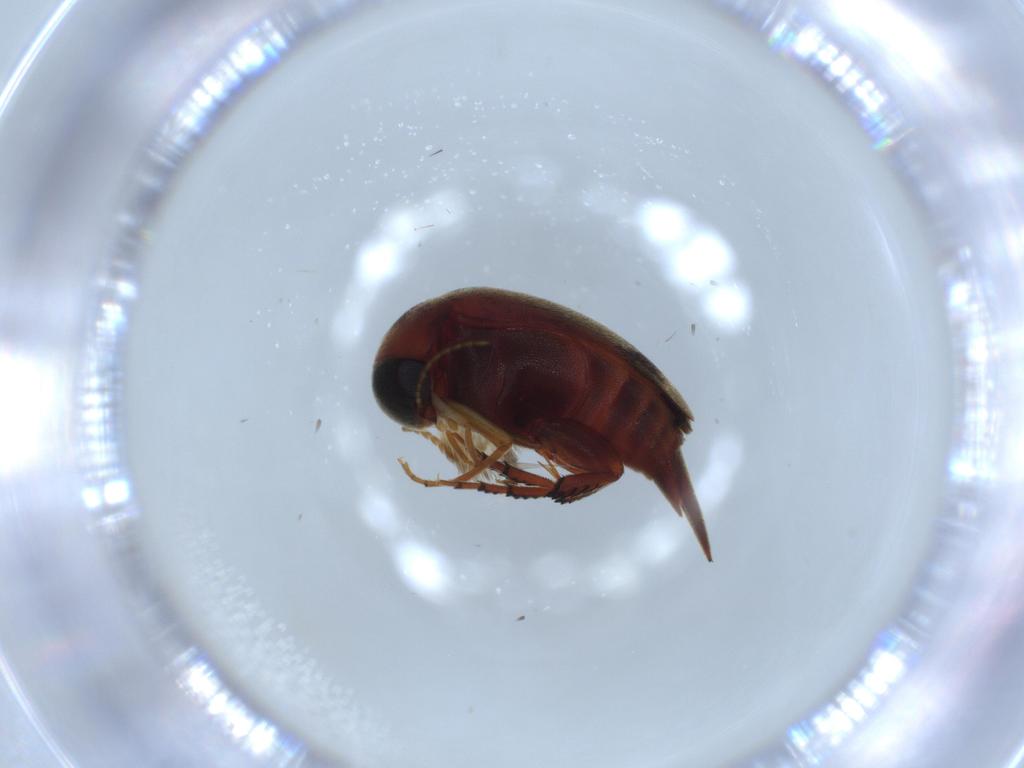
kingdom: Animalia
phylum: Arthropoda
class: Insecta
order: Coleoptera
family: Mordellidae
